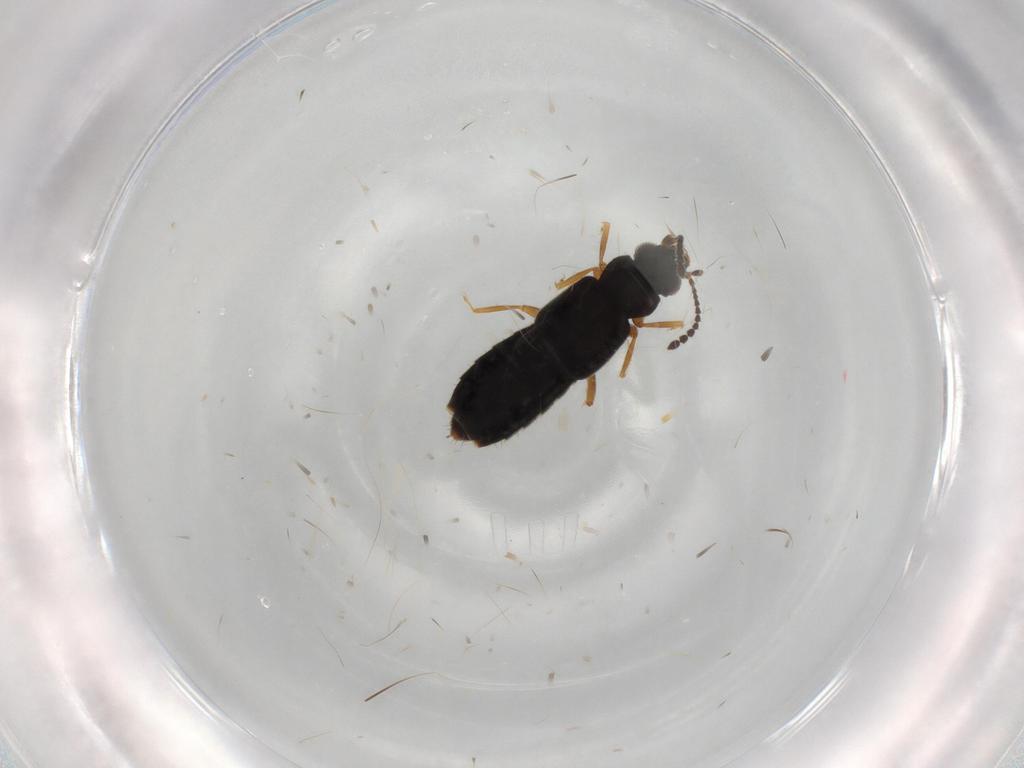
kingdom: Animalia
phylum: Arthropoda
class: Insecta
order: Coleoptera
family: Staphylinidae
